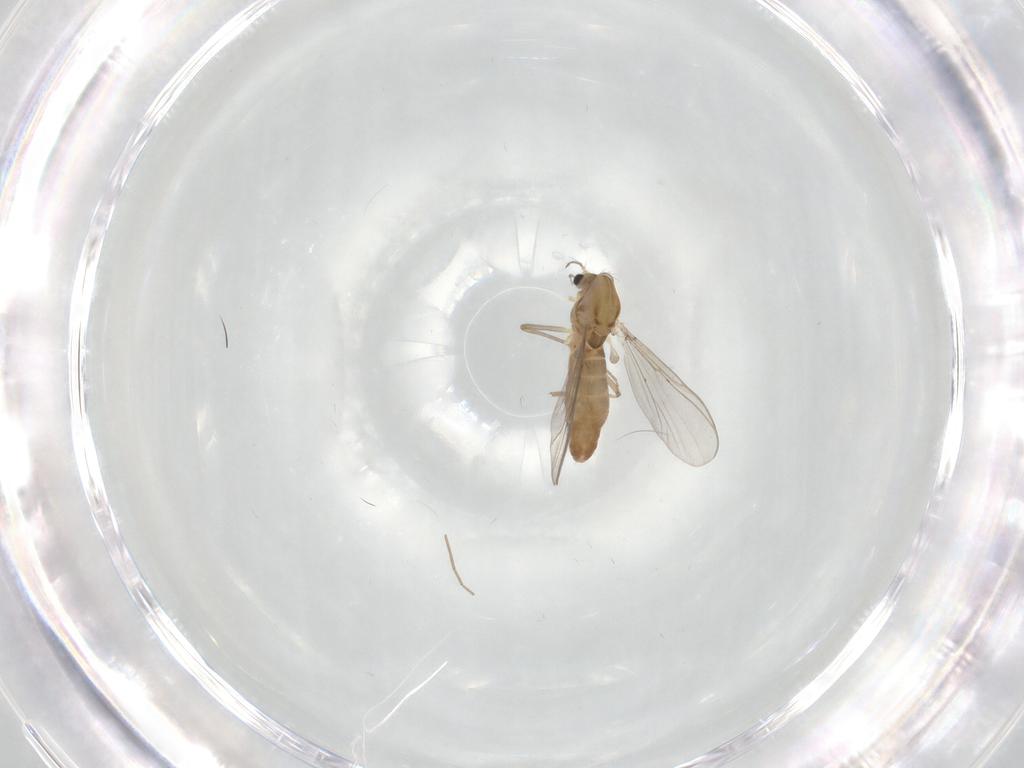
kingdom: Animalia
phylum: Arthropoda
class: Insecta
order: Diptera
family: Chironomidae
